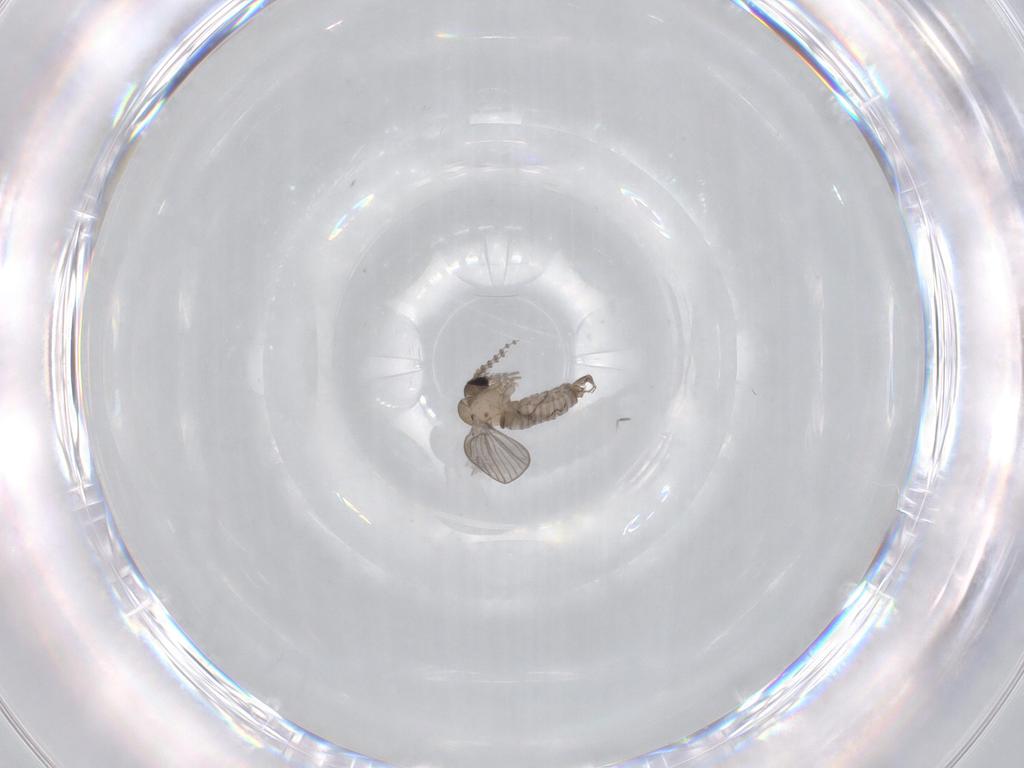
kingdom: Animalia
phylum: Arthropoda
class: Insecta
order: Diptera
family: Psychodidae
